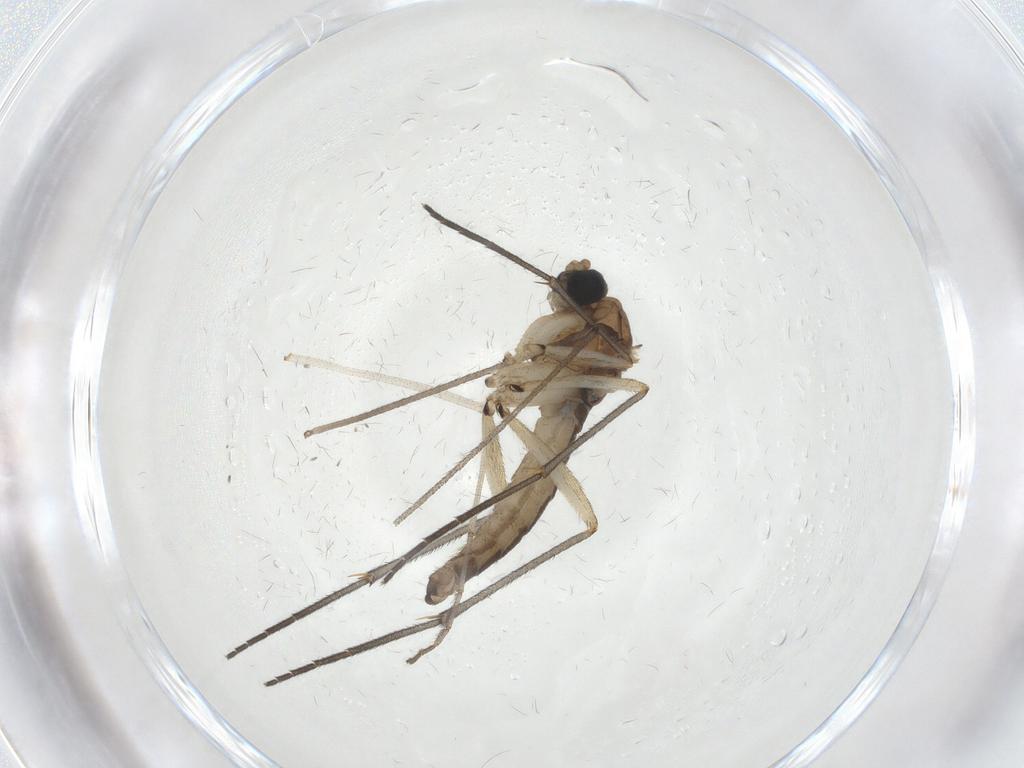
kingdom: Animalia
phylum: Arthropoda
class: Insecta
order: Diptera
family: Sciaridae
